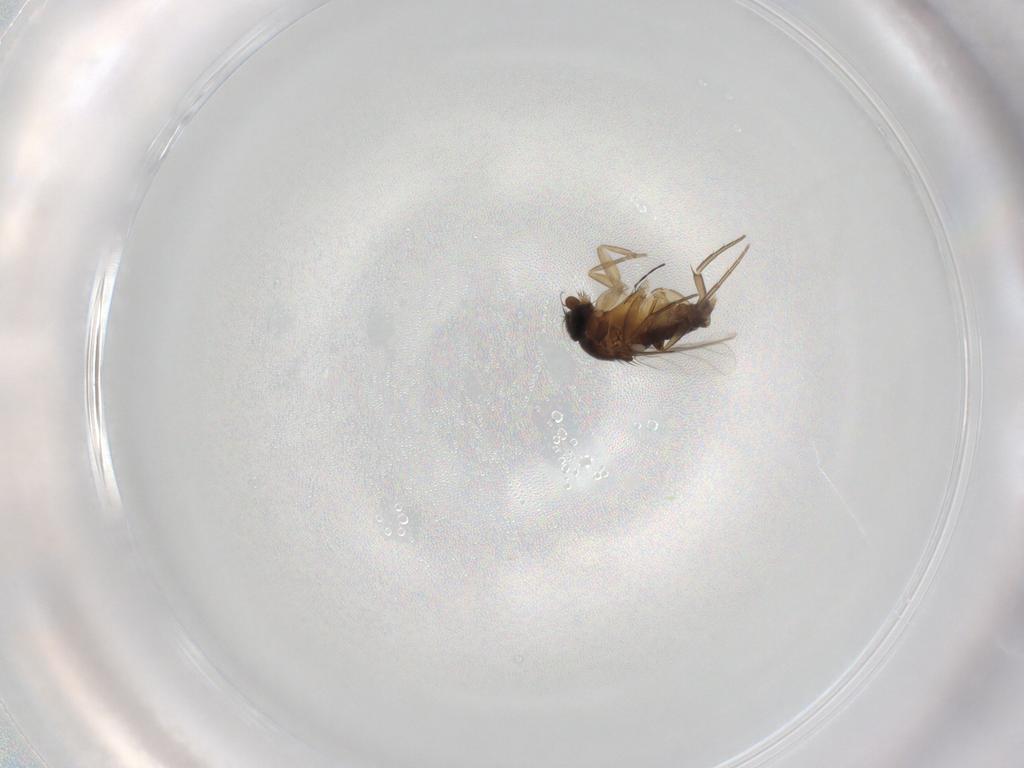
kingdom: Animalia
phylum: Arthropoda
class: Insecta
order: Diptera
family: Phoridae
